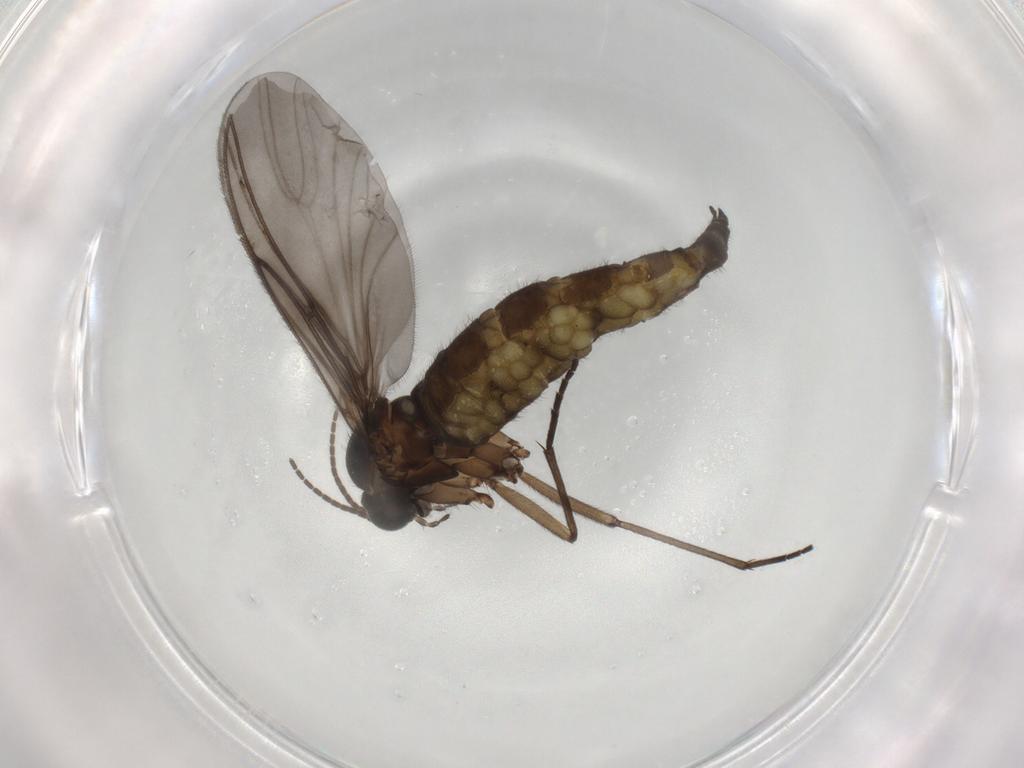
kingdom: Animalia
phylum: Arthropoda
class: Insecta
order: Diptera
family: Sciaridae
